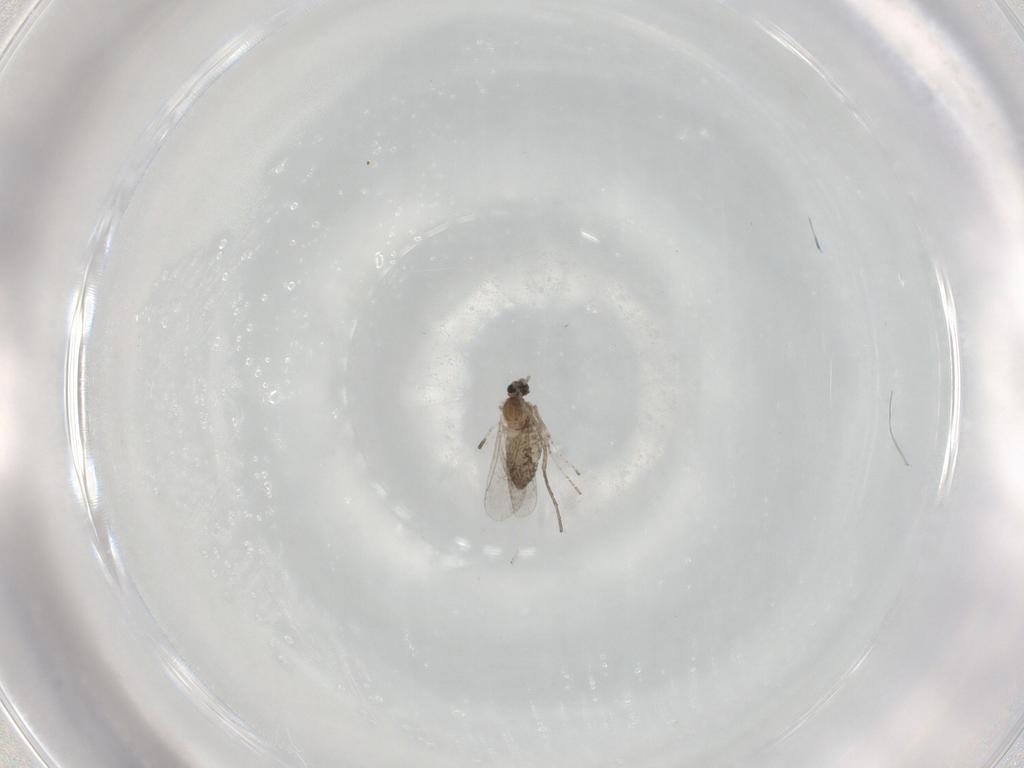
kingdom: Animalia
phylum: Arthropoda
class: Insecta
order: Diptera
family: Cecidomyiidae
